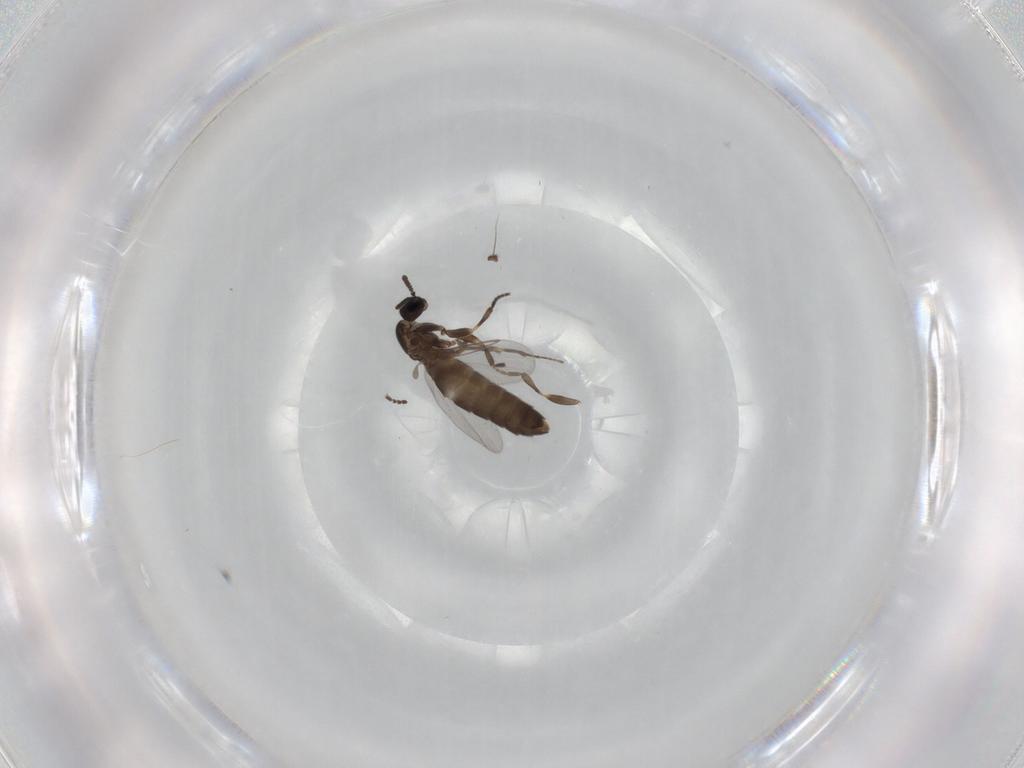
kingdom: Animalia
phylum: Arthropoda
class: Insecta
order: Diptera
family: Scatopsidae
